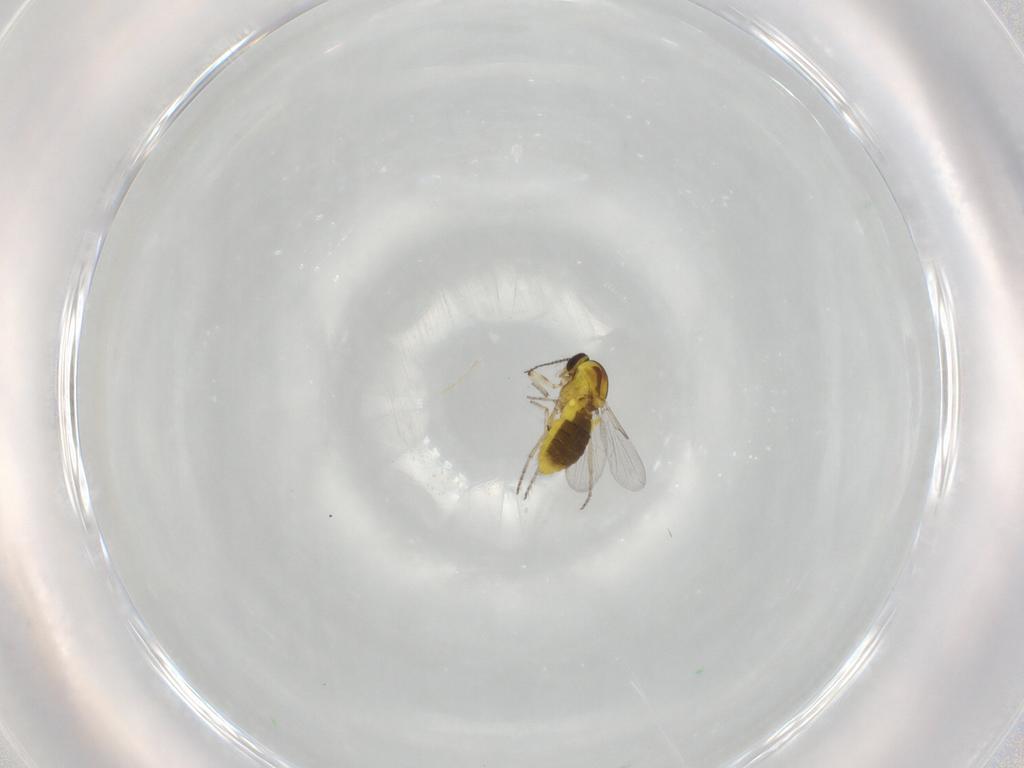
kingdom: Animalia
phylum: Arthropoda
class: Insecta
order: Diptera
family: Ceratopogonidae
